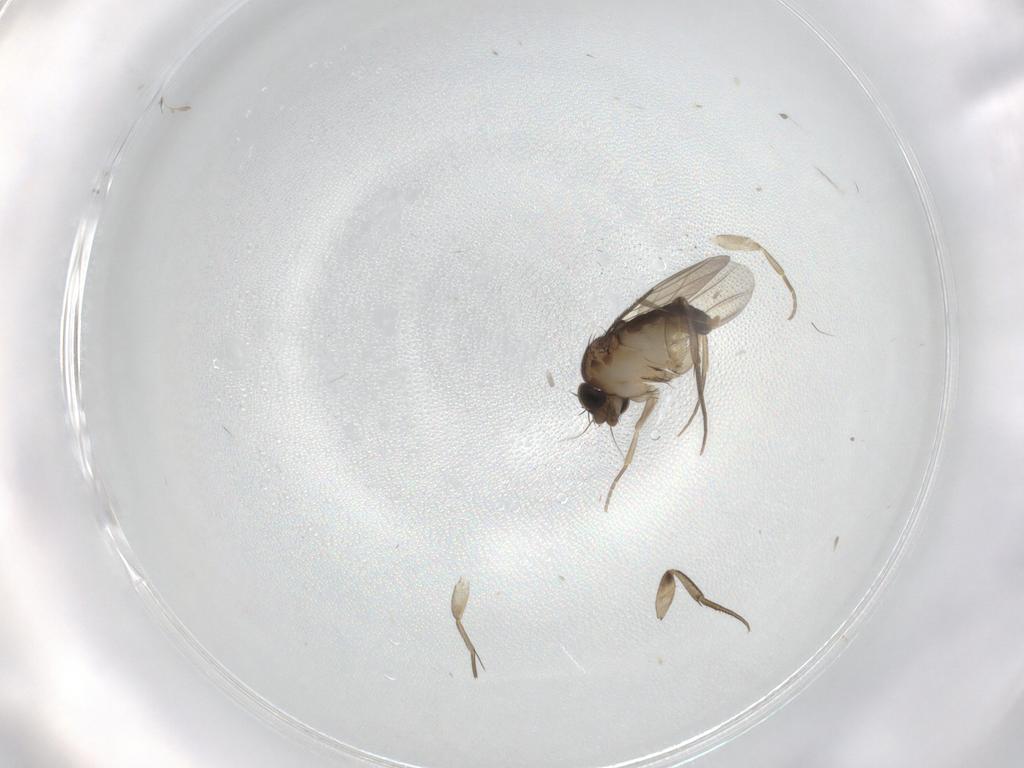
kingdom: Animalia
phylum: Arthropoda
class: Insecta
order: Diptera
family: Phoridae
